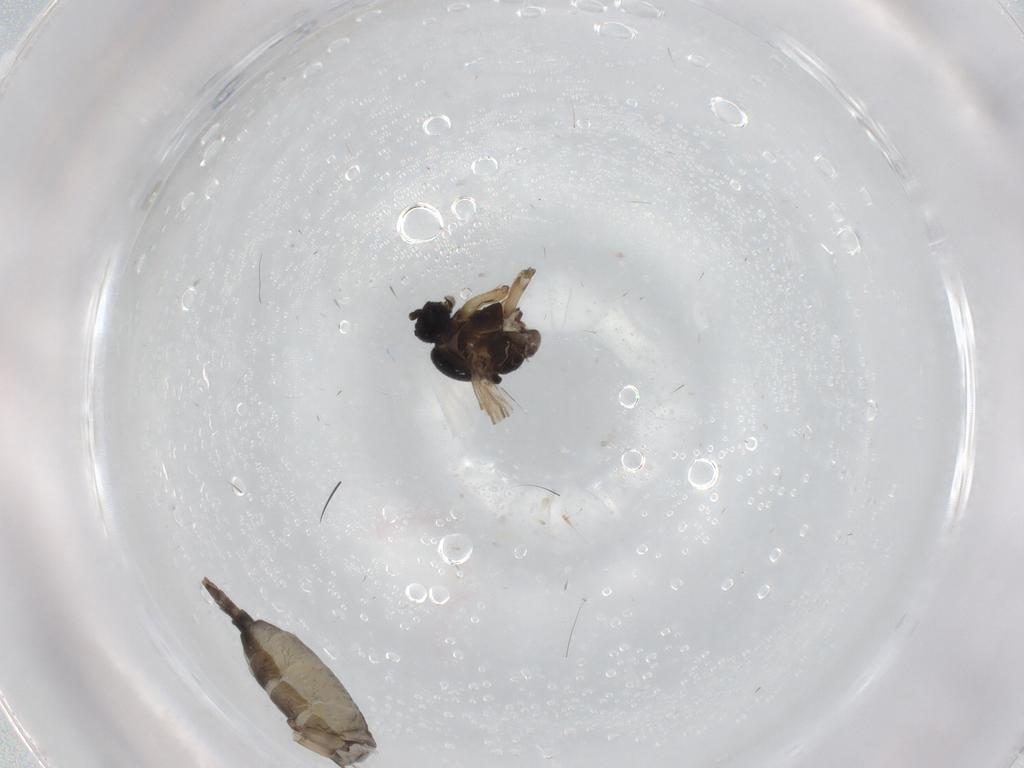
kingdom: Animalia
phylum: Arthropoda
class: Insecta
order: Diptera
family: Sciaridae
